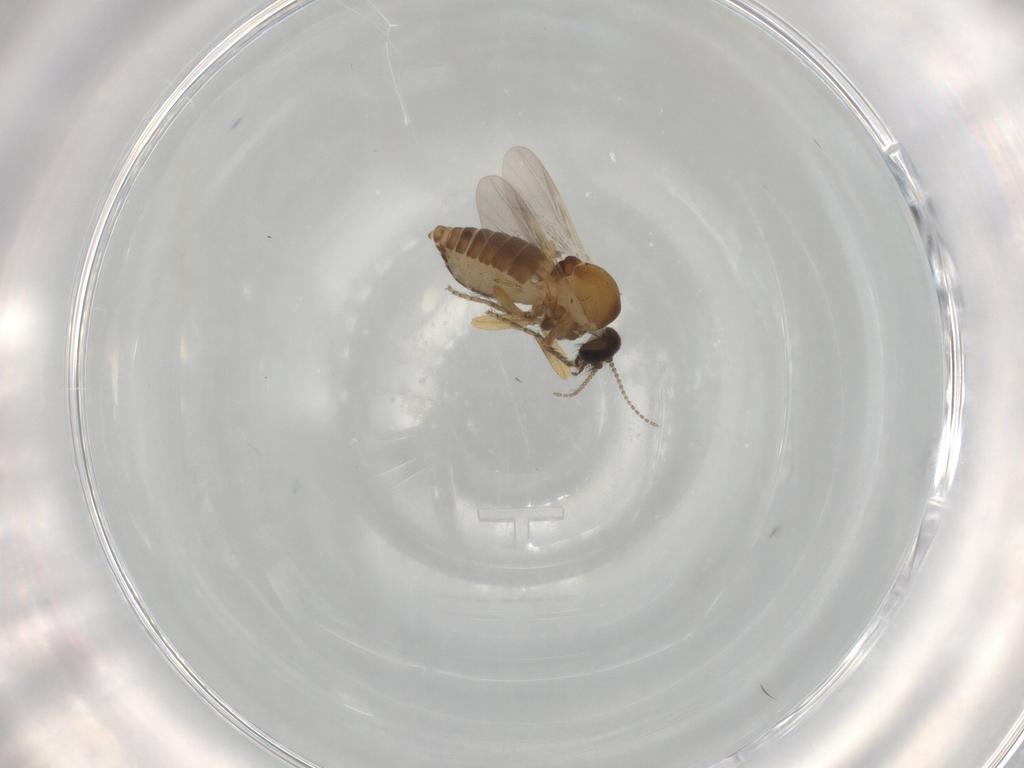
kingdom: Animalia
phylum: Arthropoda
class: Insecta
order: Diptera
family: Ceratopogonidae
